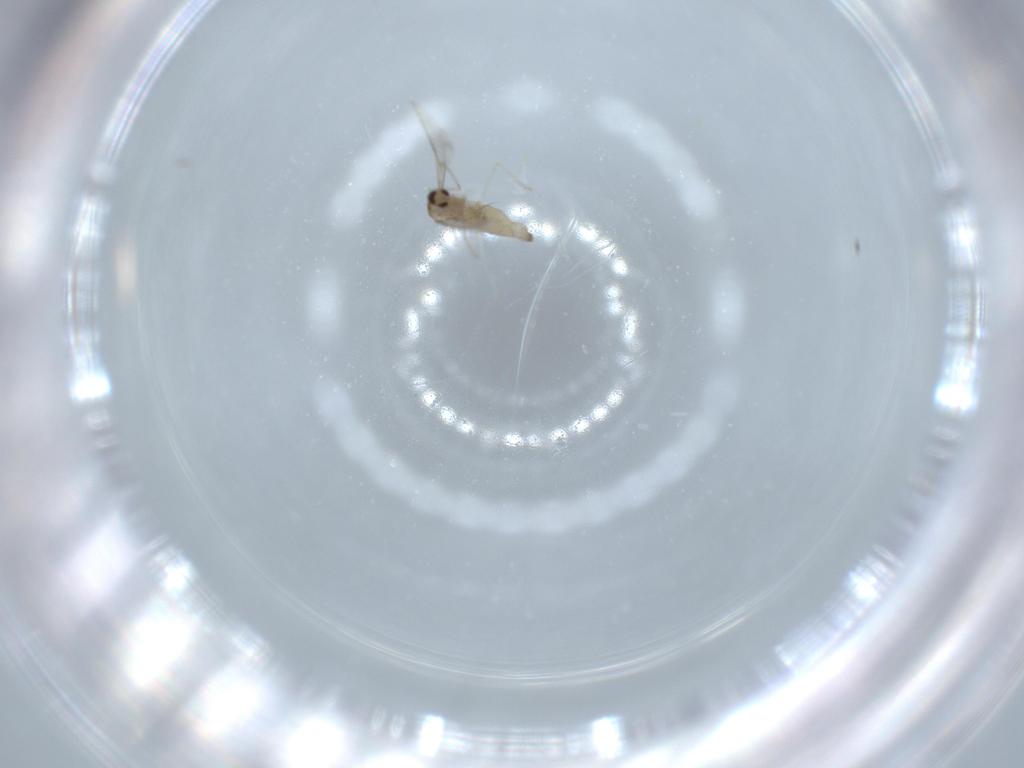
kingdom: Animalia
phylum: Arthropoda
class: Insecta
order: Diptera
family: Cecidomyiidae
